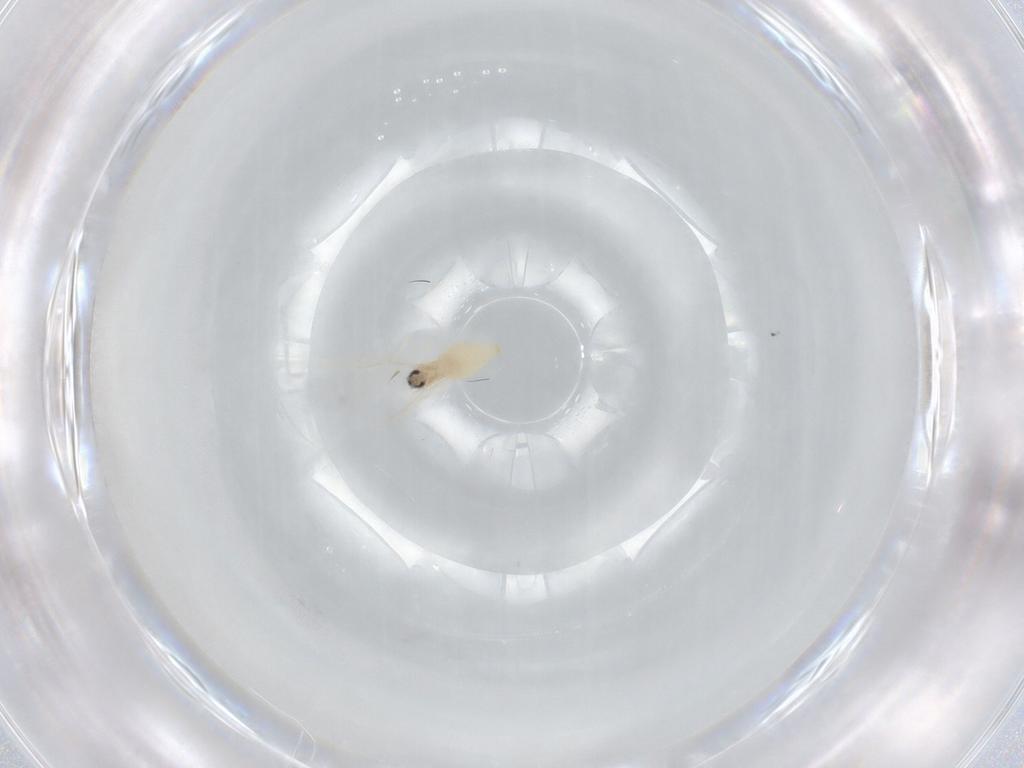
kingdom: Animalia
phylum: Arthropoda
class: Insecta
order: Diptera
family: Cecidomyiidae
